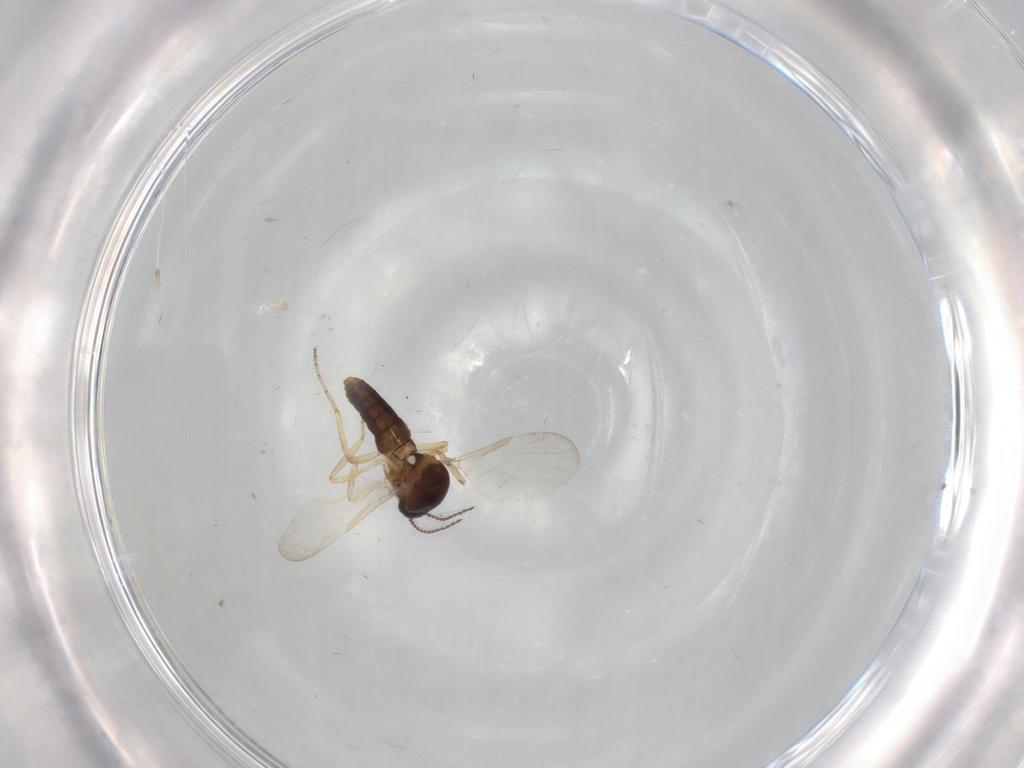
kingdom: Animalia
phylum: Arthropoda
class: Insecta
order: Diptera
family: Ceratopogonidae
